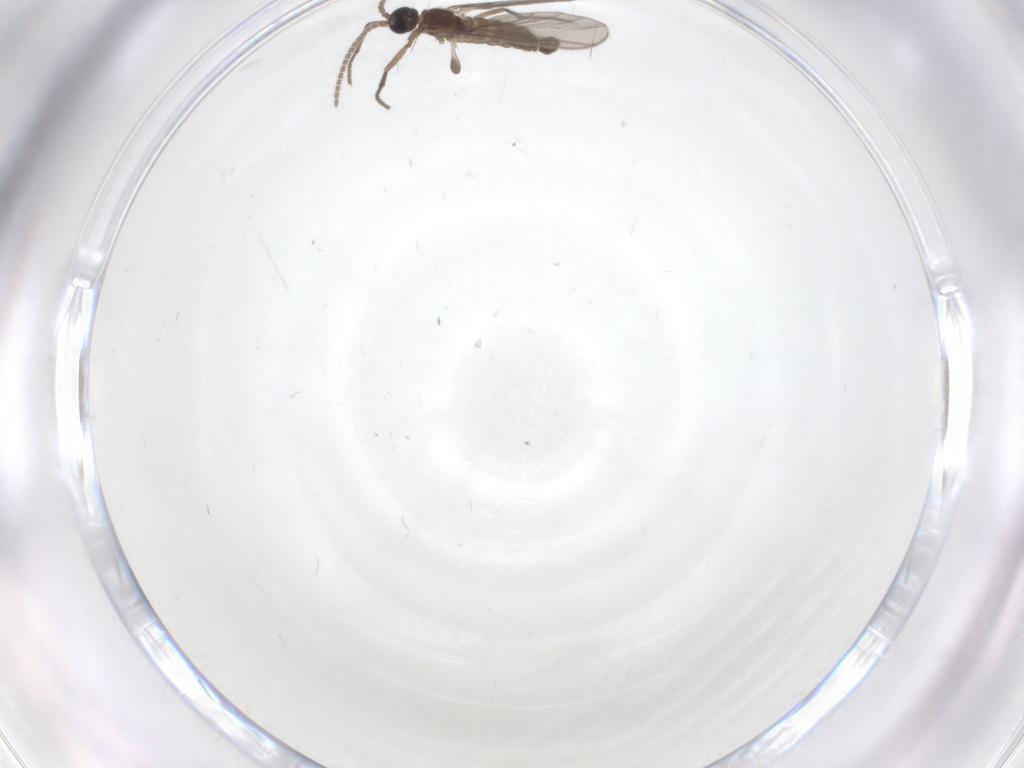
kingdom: Animalia
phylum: Arthropoda
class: Insecta
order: Diptera
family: Sciaridae
